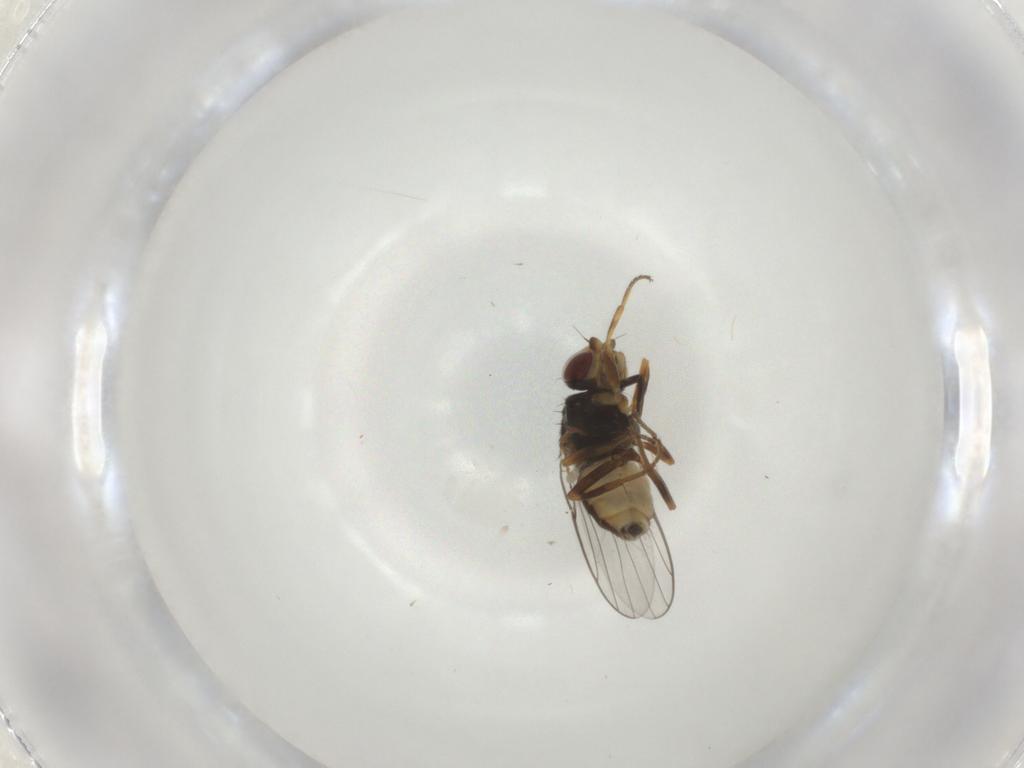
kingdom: Animalia
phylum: Arthropoda
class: Insecta
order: Diptera
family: Chloropidae
